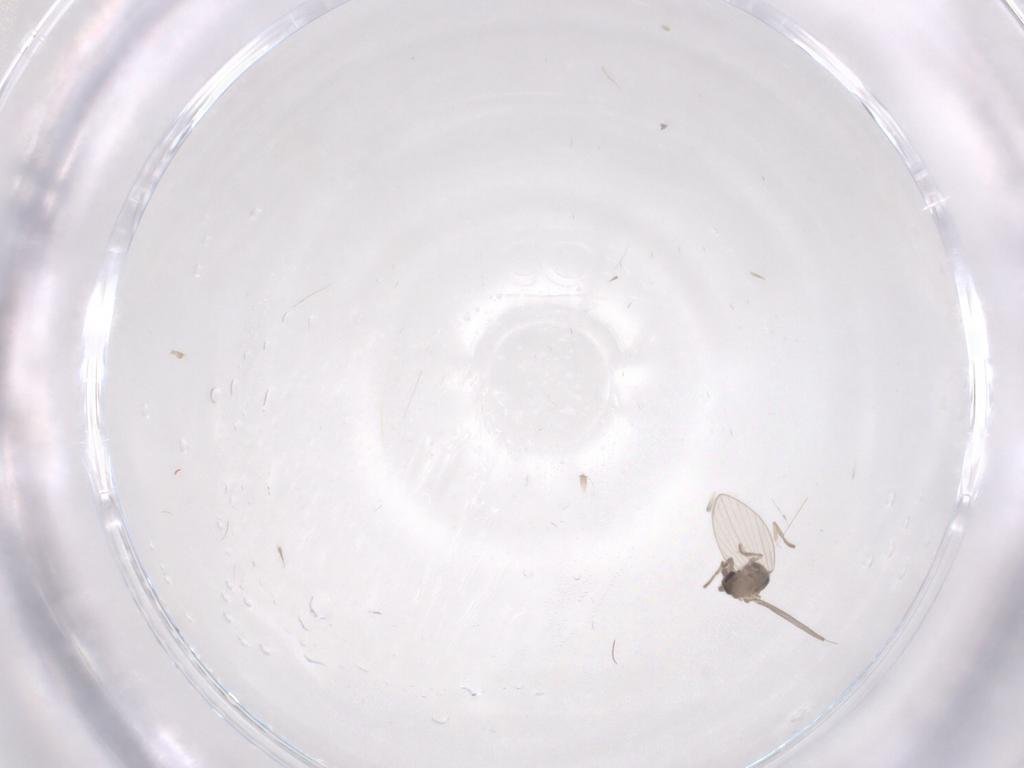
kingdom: Animalia
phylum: Arthropoda
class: Insecta
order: Diptera
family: Psychodidae
